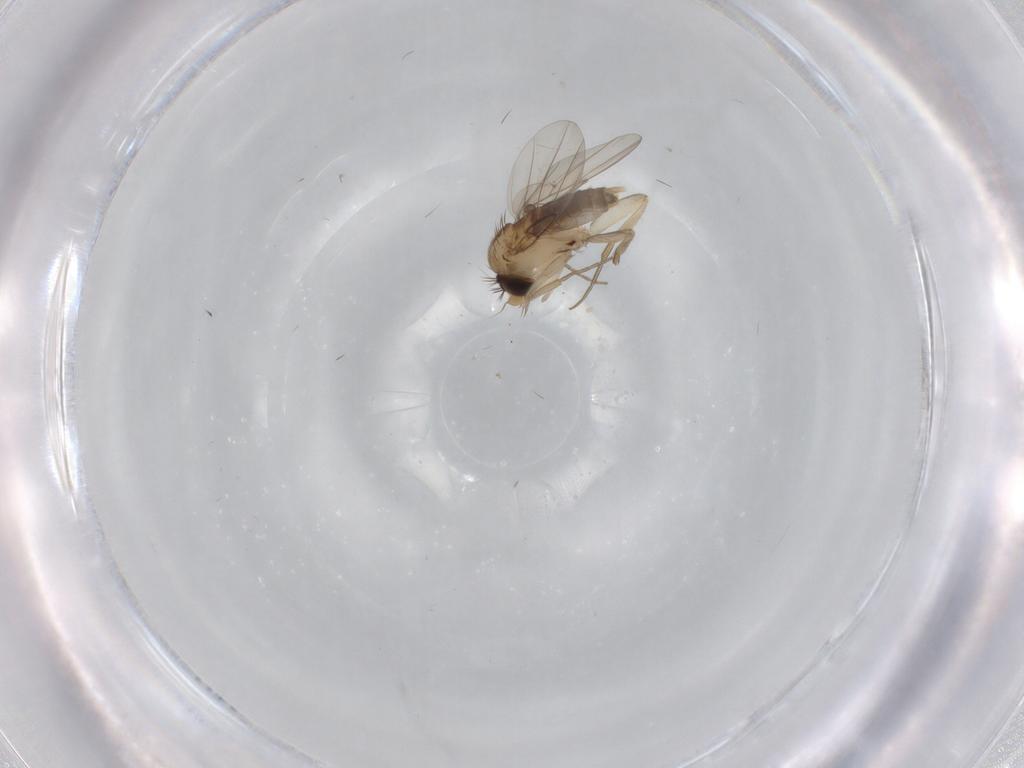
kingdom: Animalia
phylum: Arthropoda
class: Insecta
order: Diptera
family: Phoridae
